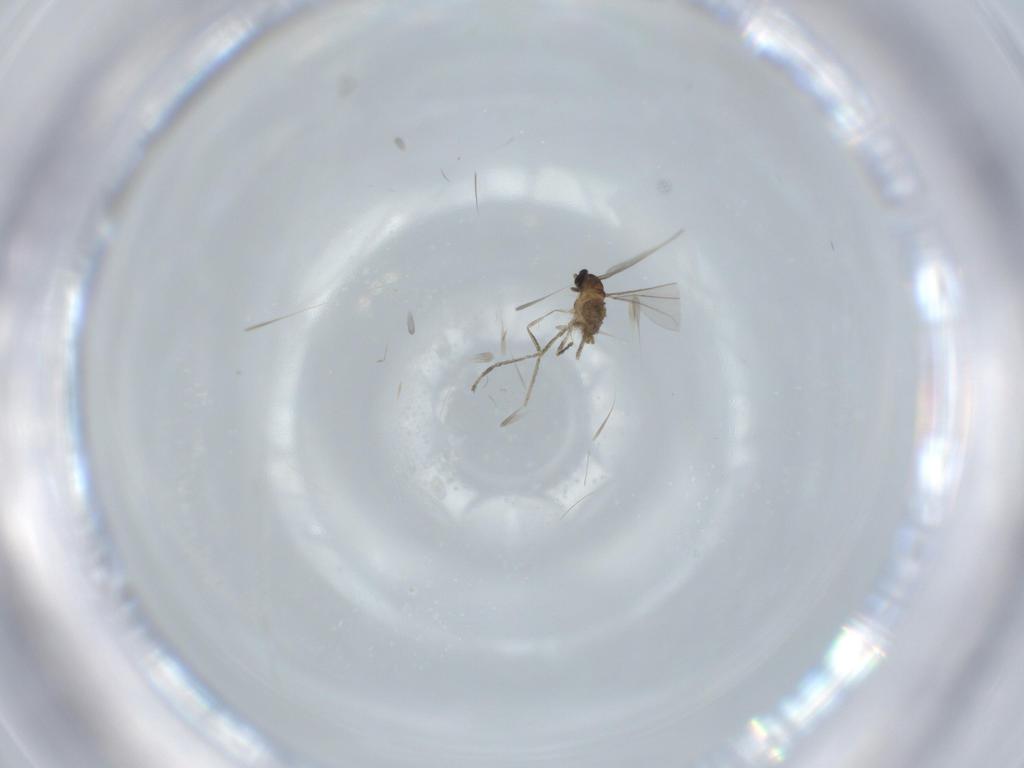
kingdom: Animalia
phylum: Arthropoda
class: Insecta
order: Diptera
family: Cecidomyiidae
